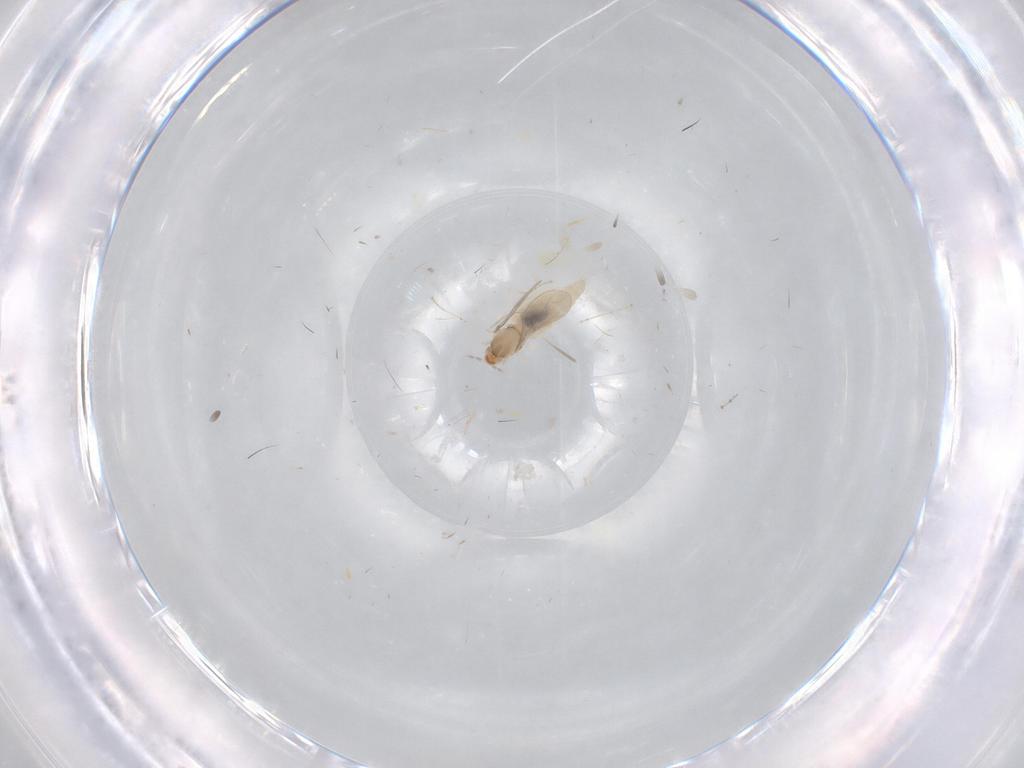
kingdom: Animalia
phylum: Arthropoda
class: Insecta
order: Diptera
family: Cecidomyiidae
